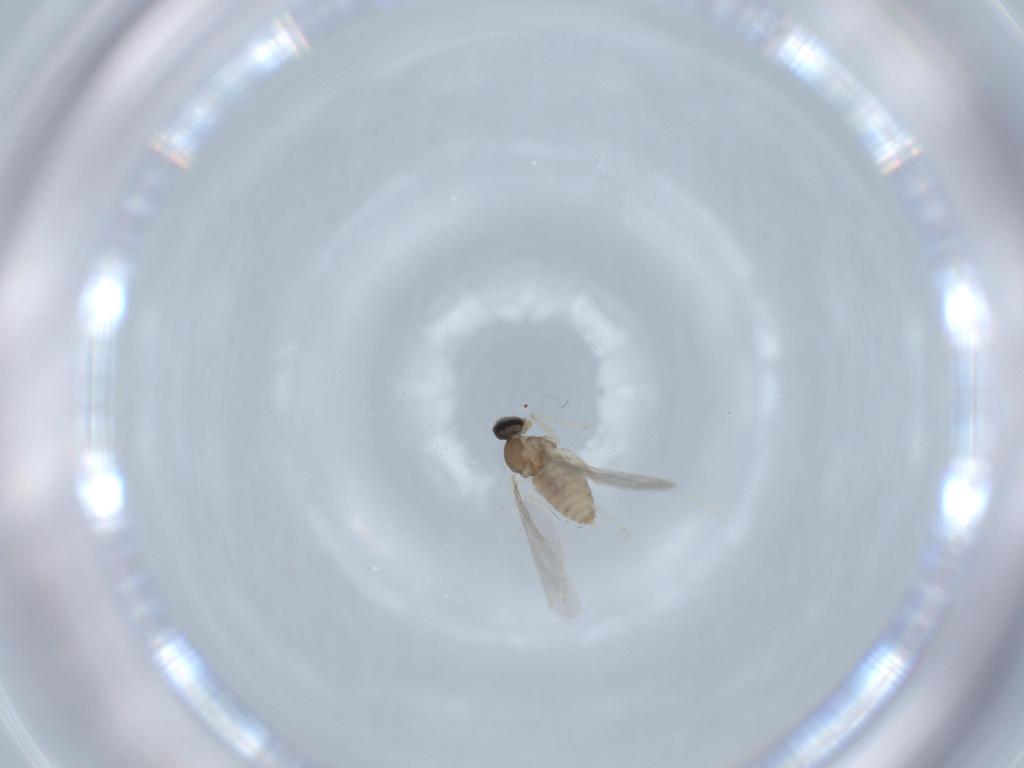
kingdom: Animalia
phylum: Arthropoda
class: Insecta
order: Diptera
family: Cecidomyiidae
